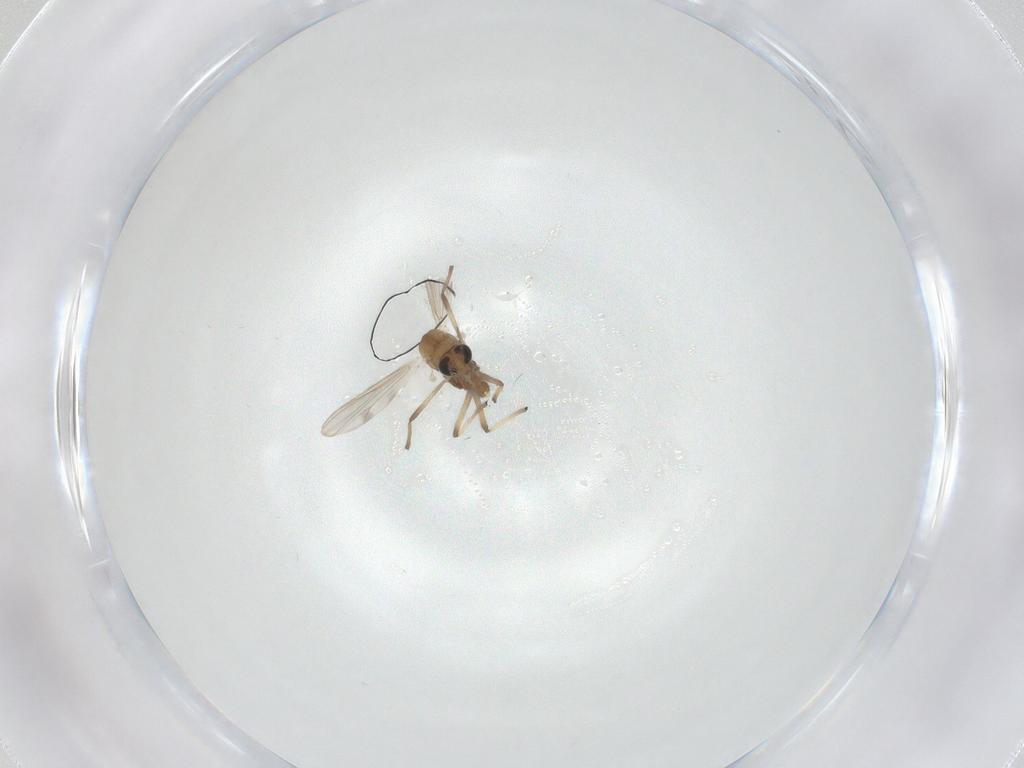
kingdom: Animalia
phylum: Arthropoda
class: Insecta
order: Diptera
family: Chironomidae
